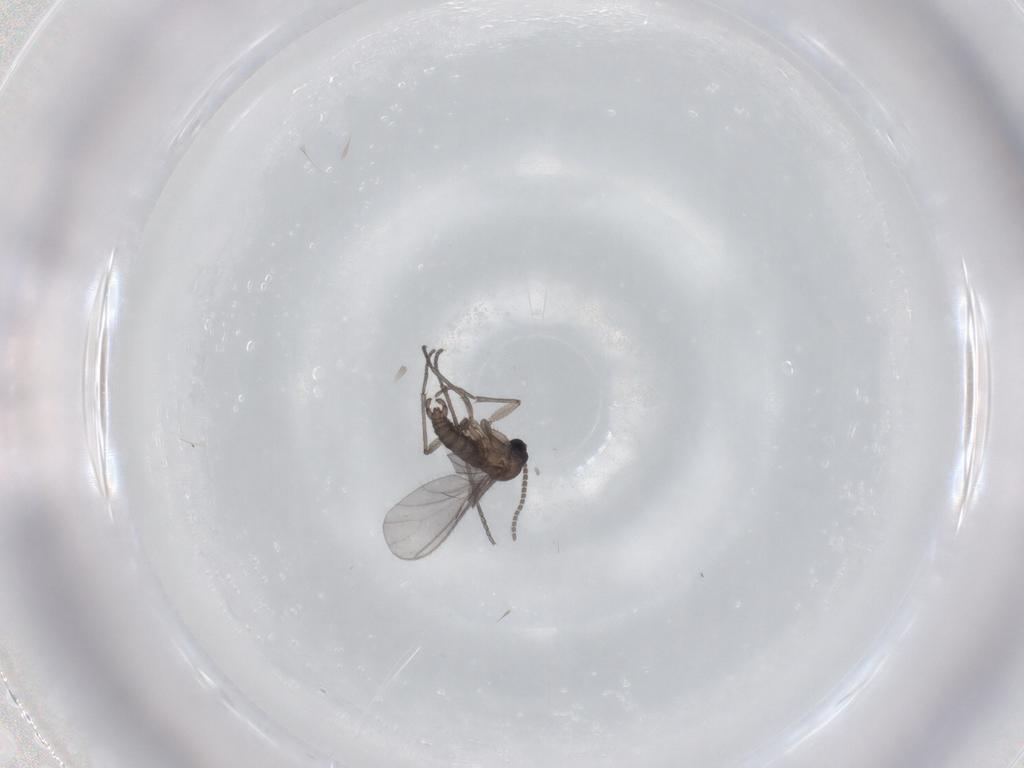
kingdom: Animalia
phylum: Arthropoda
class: Insecta
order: Diptera
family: Sciaridae
